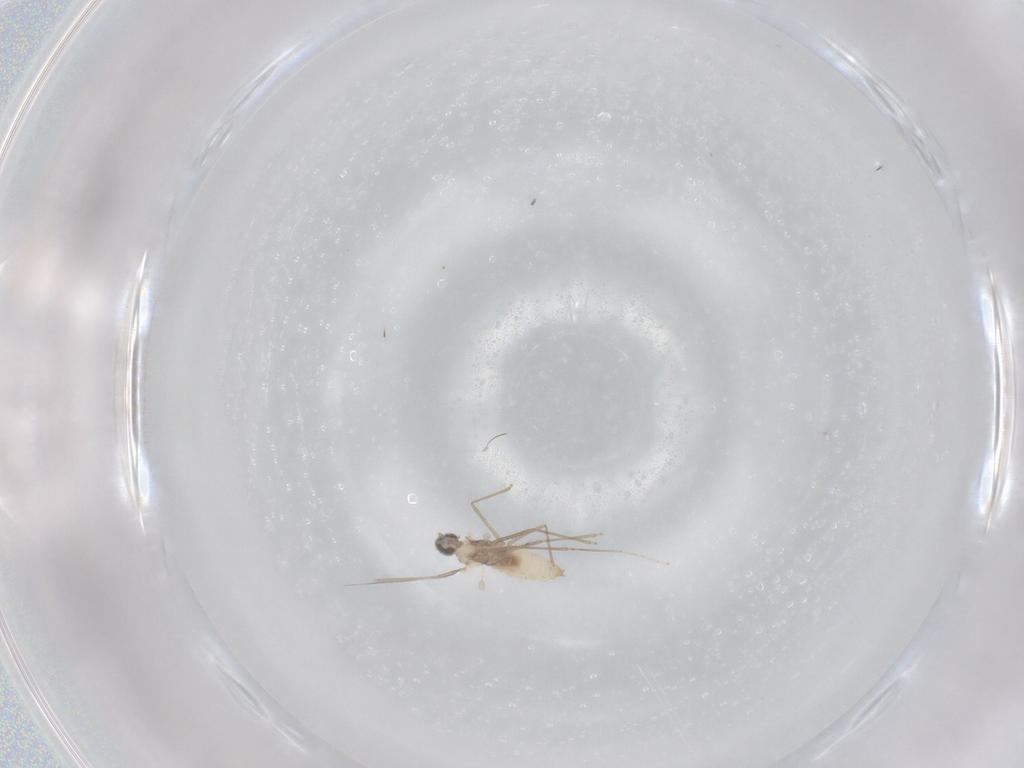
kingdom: Animalia
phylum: Arthropoda
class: Insecta
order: Diptera
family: Cecidomyiidae
